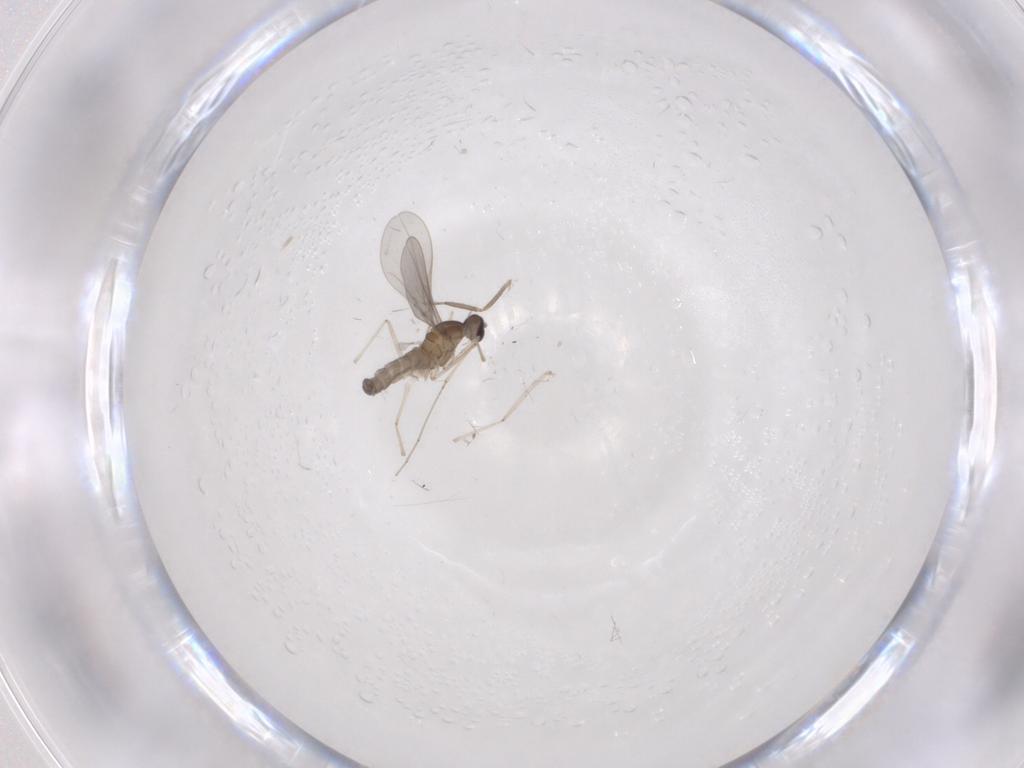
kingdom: Animalia
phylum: Arthropoda
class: Insecta
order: Diptera
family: Cecidomyiidae
